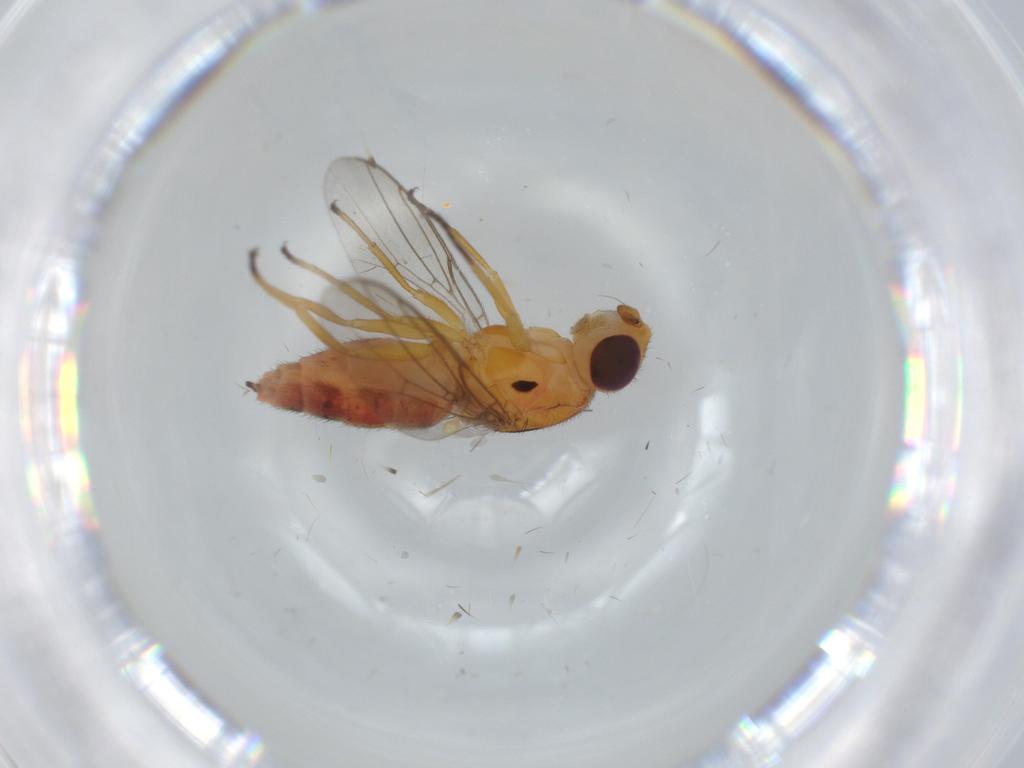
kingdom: Animalia
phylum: Arthropoda
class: Insecta
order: Diptera
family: Chloropidae
